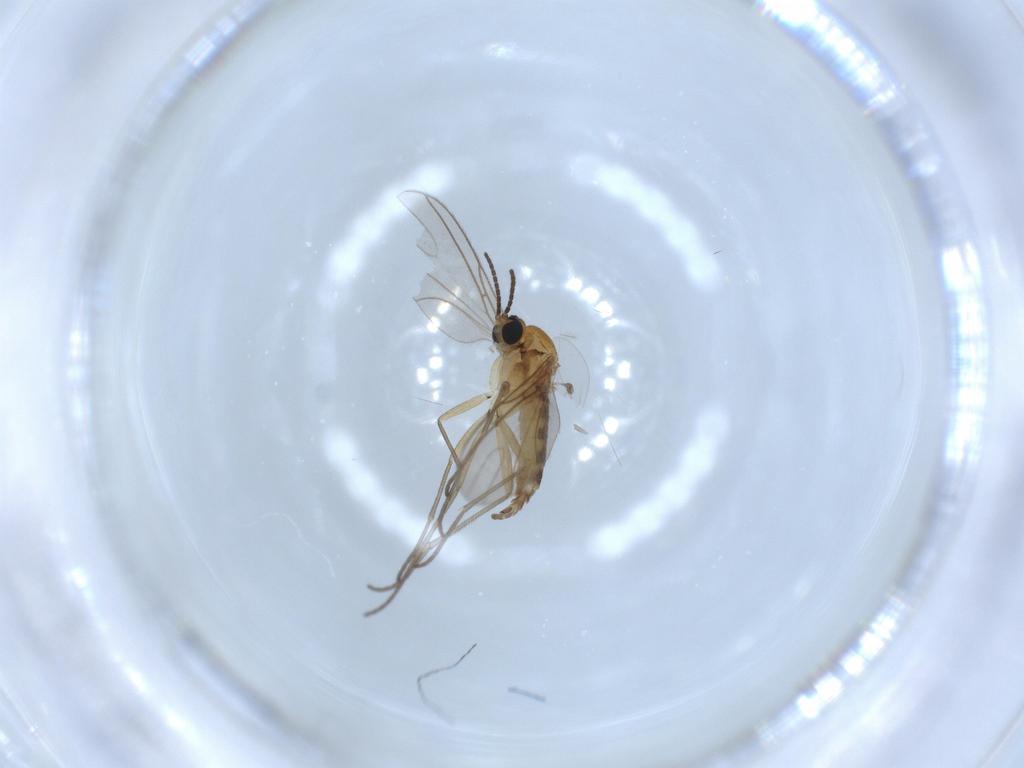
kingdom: Animalia
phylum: Arthropoda
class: Insecta
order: Diptera
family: Sciaridae
